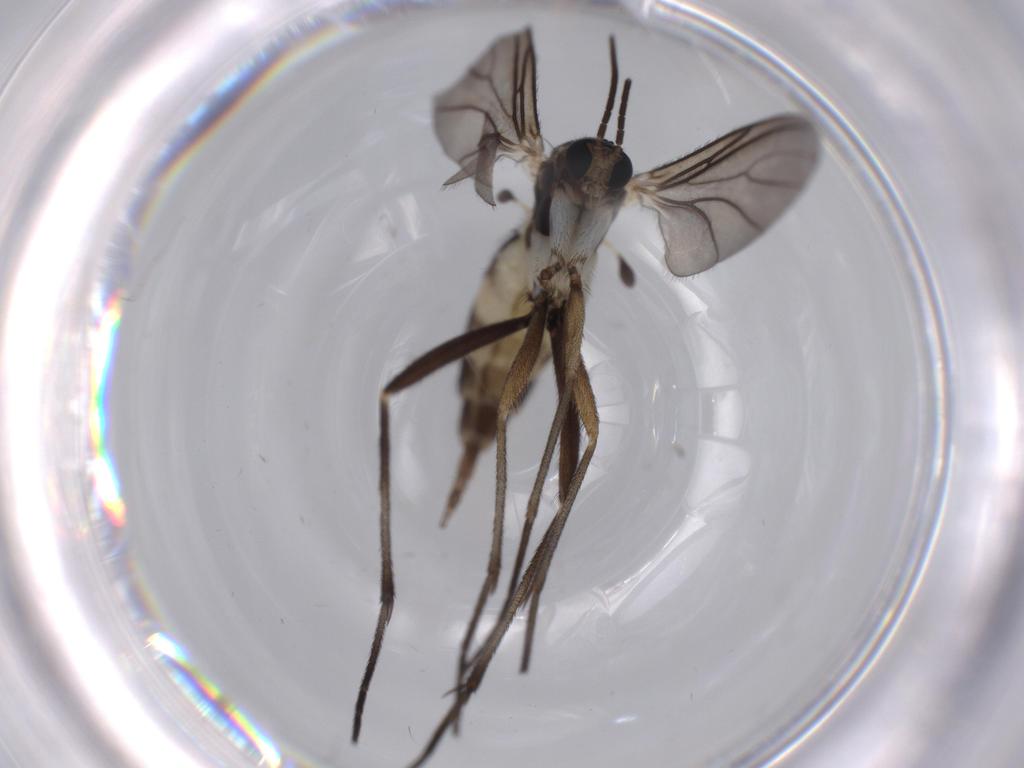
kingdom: Animalia
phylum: Arthropoda
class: Insecta
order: Diptera
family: Sciaridae
